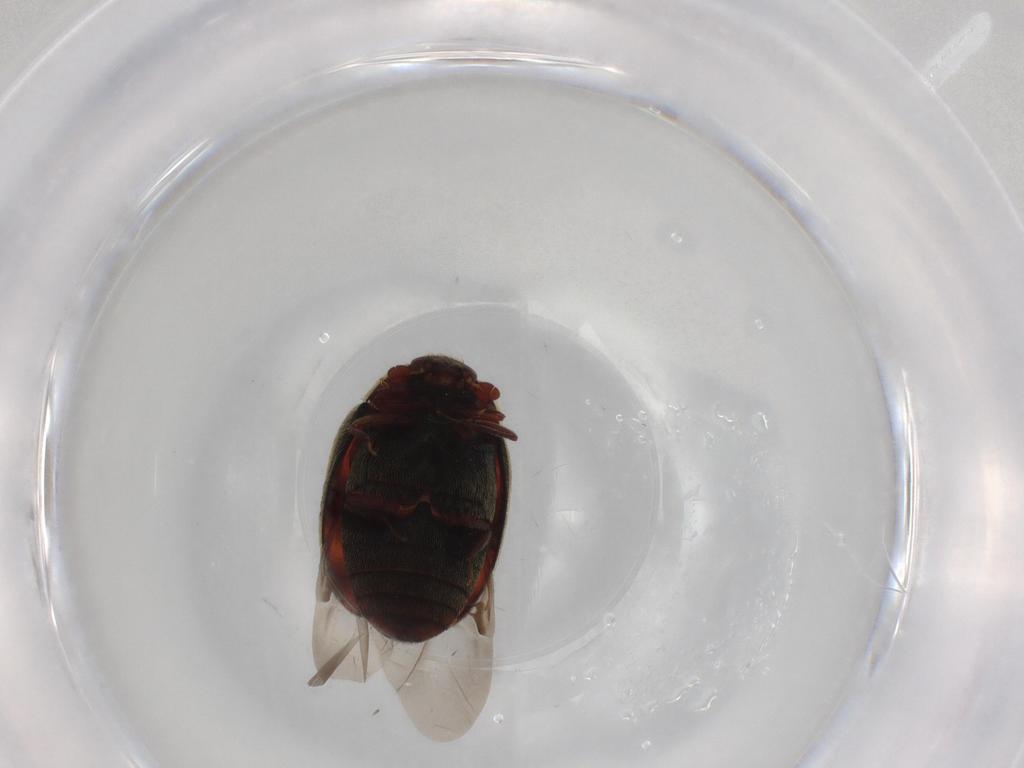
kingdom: Animalia
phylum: Arthropoda
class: Insecta
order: Coleoptera
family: Dermestidae
